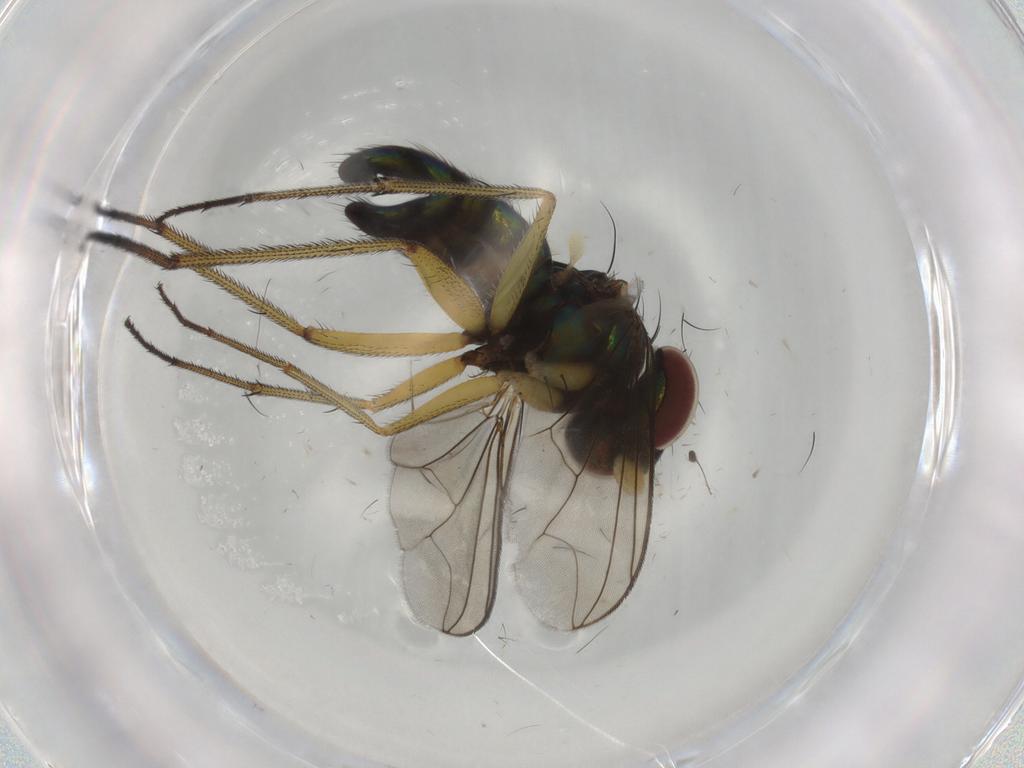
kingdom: Animalia
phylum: Arthropoda
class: Insecta
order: Diptera
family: Dolichopodidae
